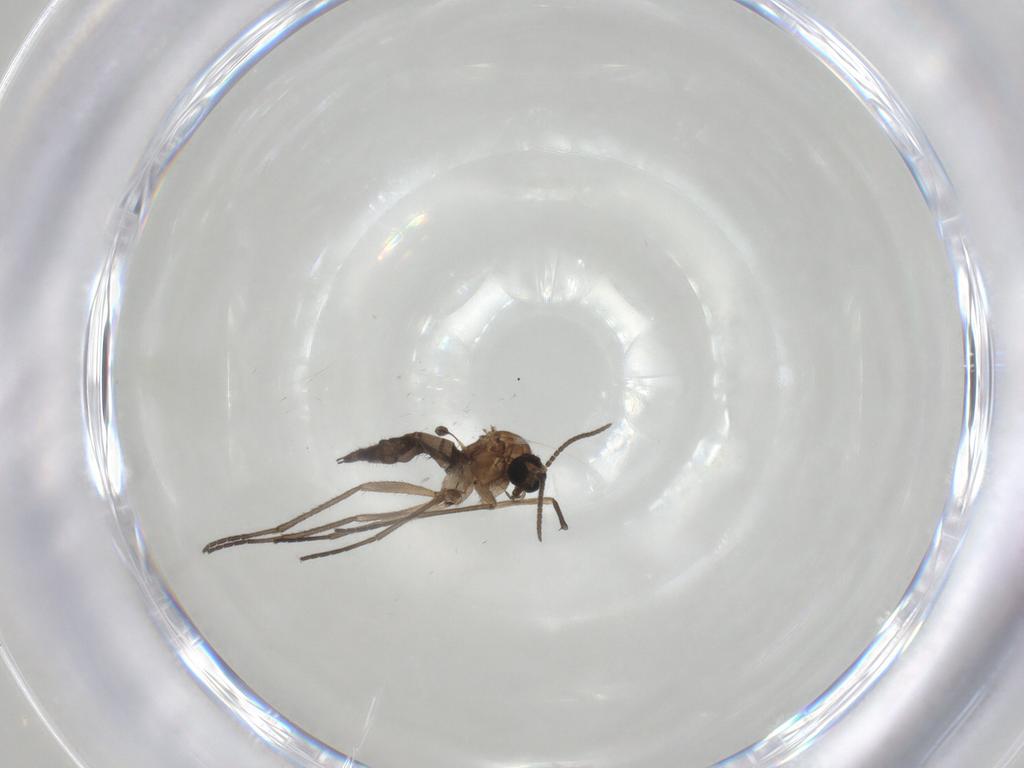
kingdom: Animalia
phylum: Arthropoda
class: Insecta
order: Diptera
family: Sciaridae
